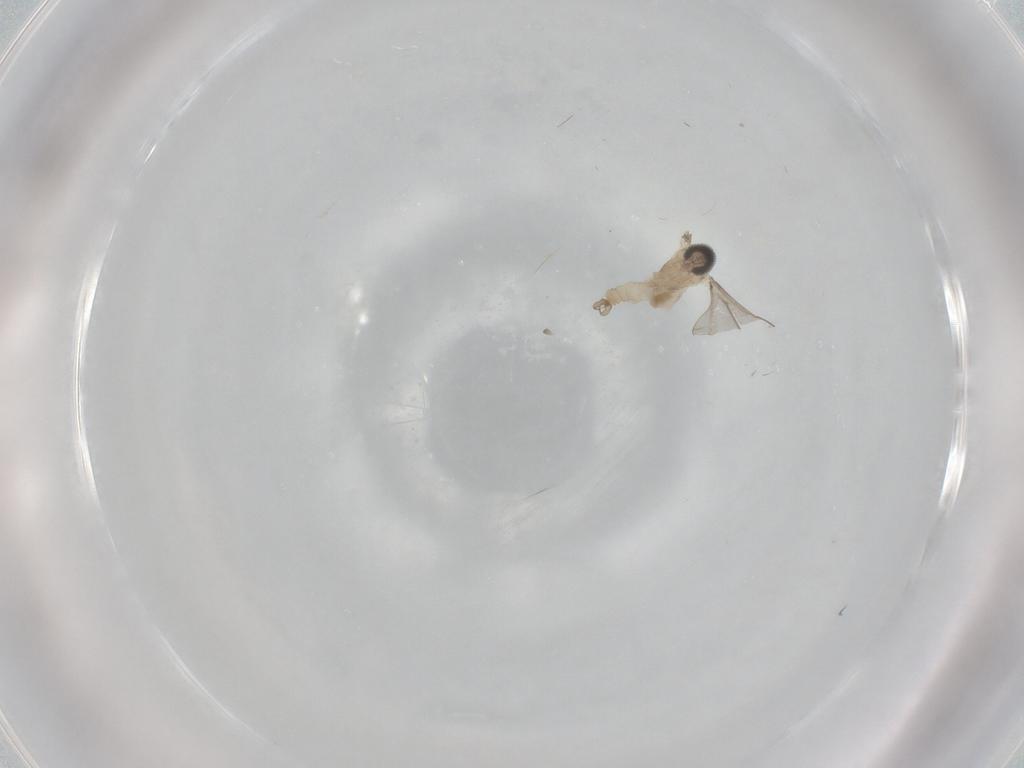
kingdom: Animalia
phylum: Arthropoda
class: Insecta
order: Diptera
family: Cecidomyiidae
